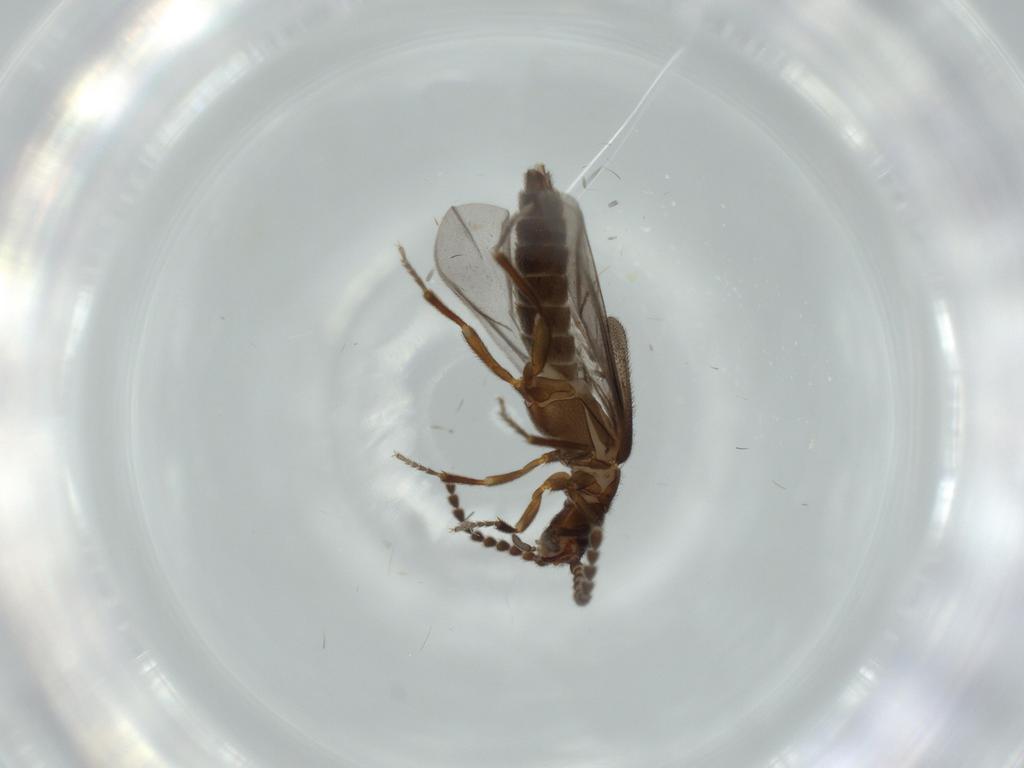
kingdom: Animalia
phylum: Arthropoda
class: Insecta
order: Coleoptera
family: Omethidae
